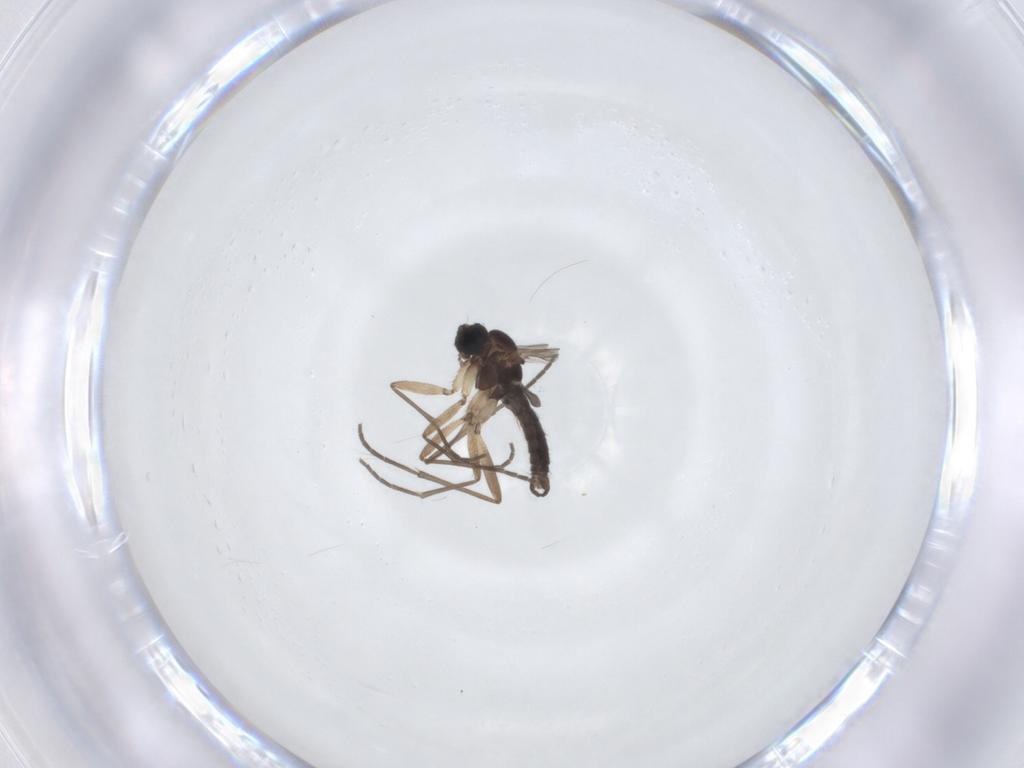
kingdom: Animalia
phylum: Arthropoda
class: Insecta
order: Diptera
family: Sciaridae
